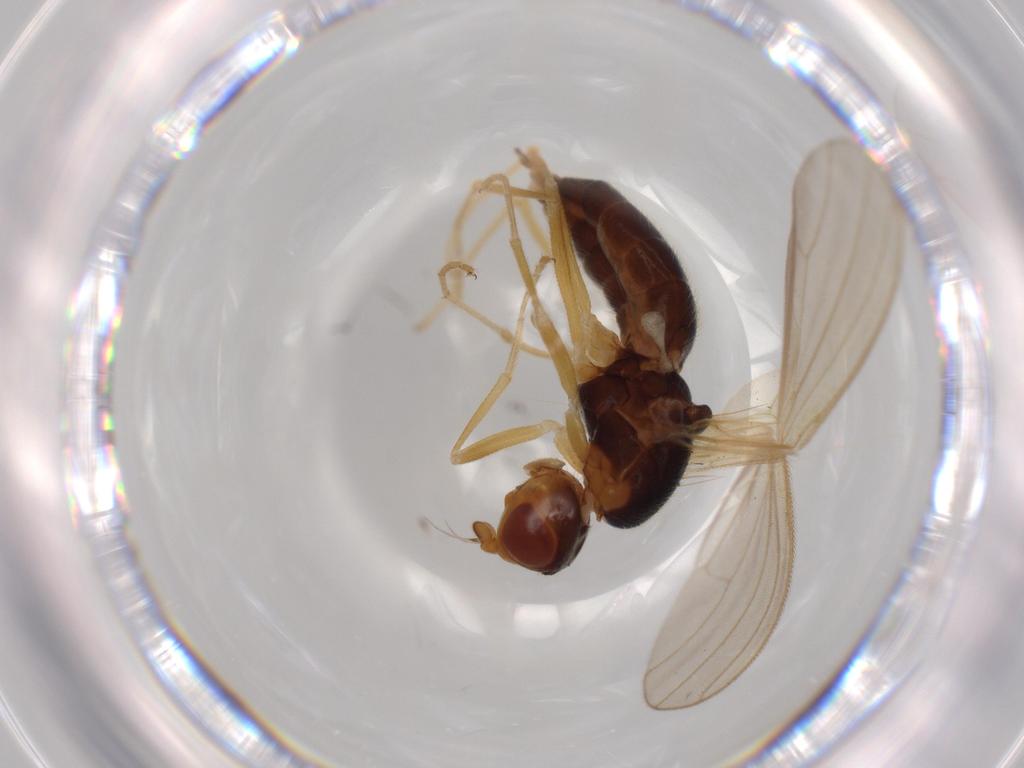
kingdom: Animalia
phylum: Arthropoda
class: Insecta
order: Diptera
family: Psilidae
